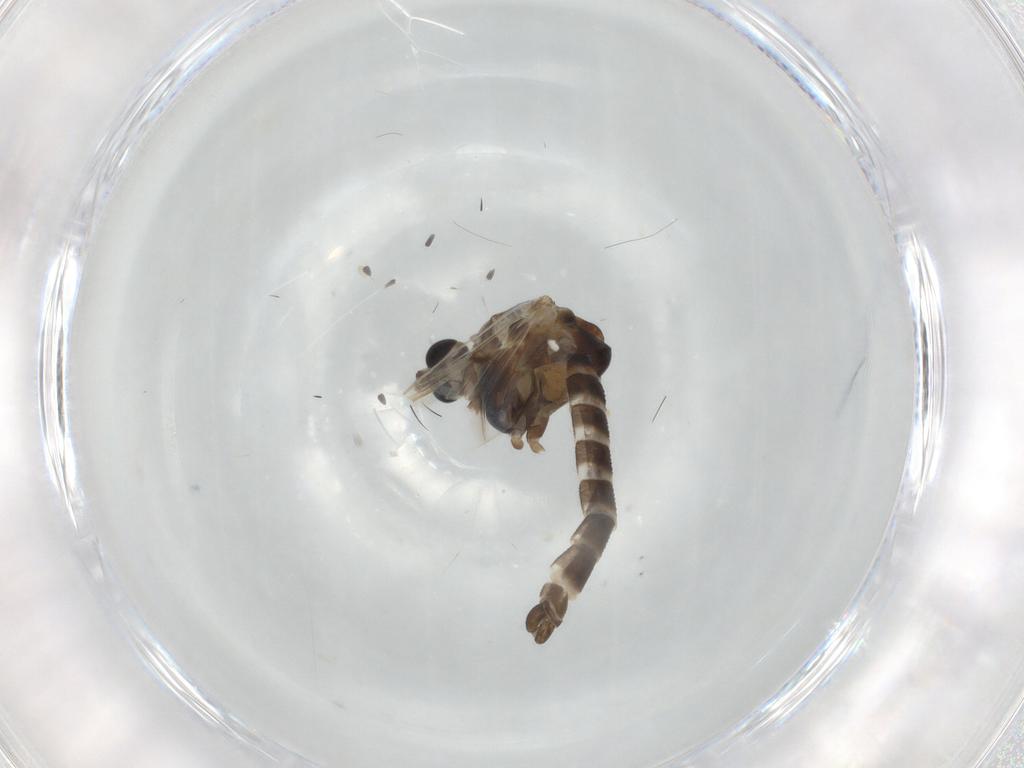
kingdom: Animalia
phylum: Arthropoda
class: Insecta
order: Diptera
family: Chironomidae
